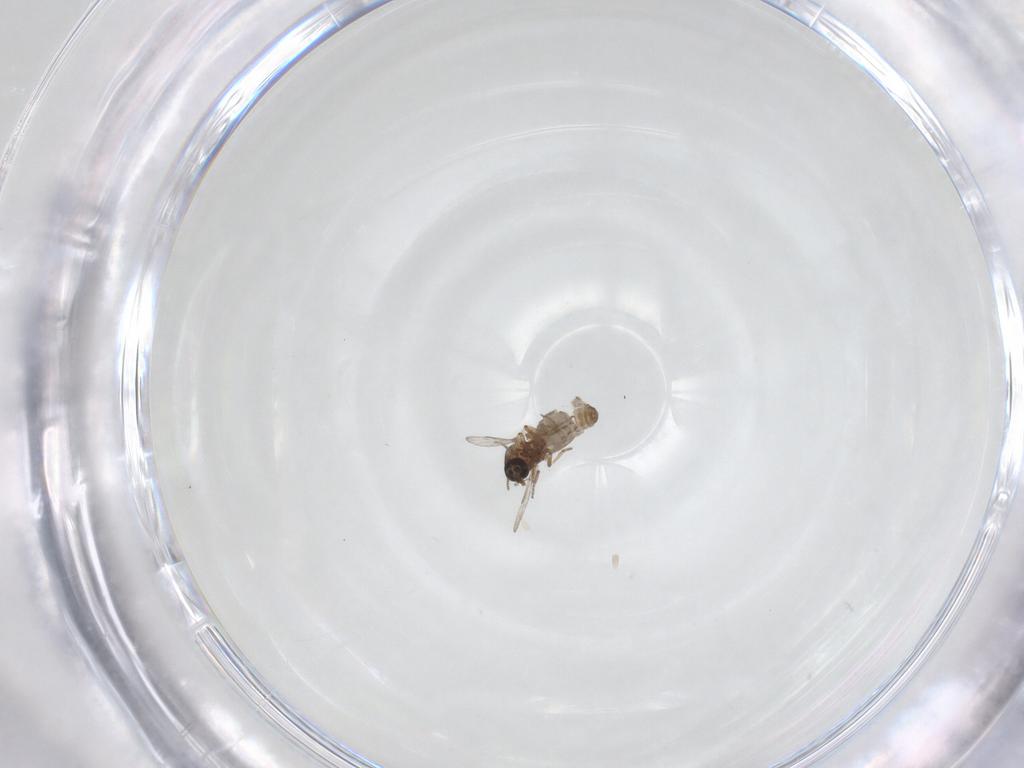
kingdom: Animalia
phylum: Arthropoda
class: Insecta
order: Diptera
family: Ceratopogonidae
